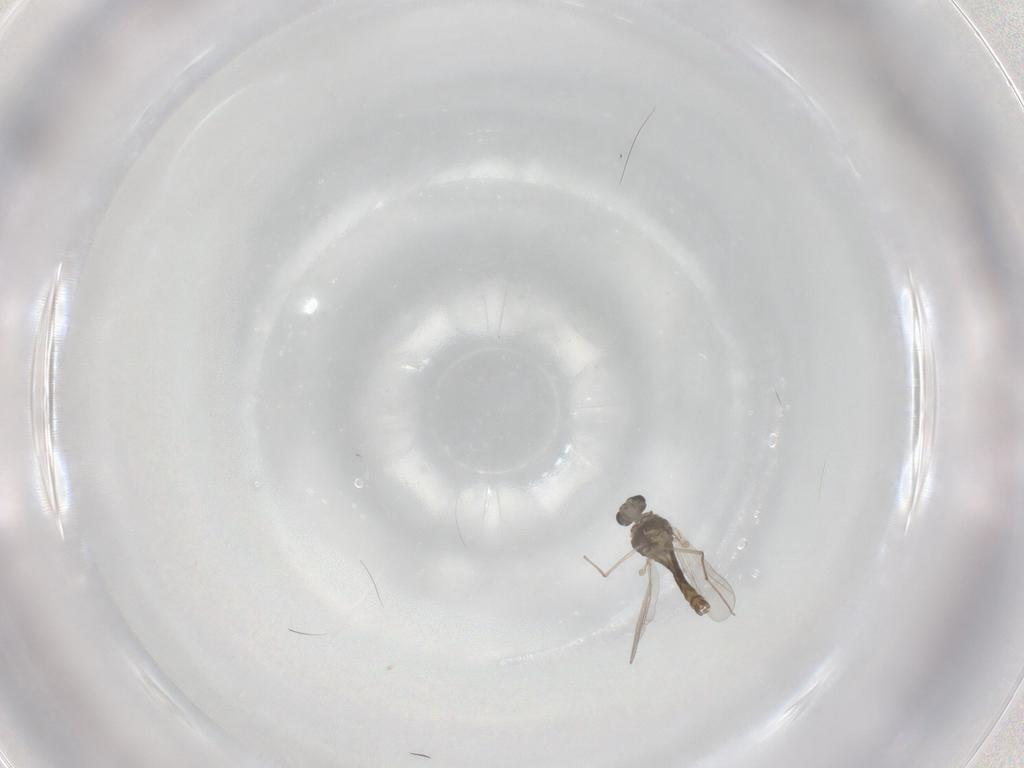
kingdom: Animalia
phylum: Arthropoda
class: Insecta
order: Diptera
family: Chironomidae
